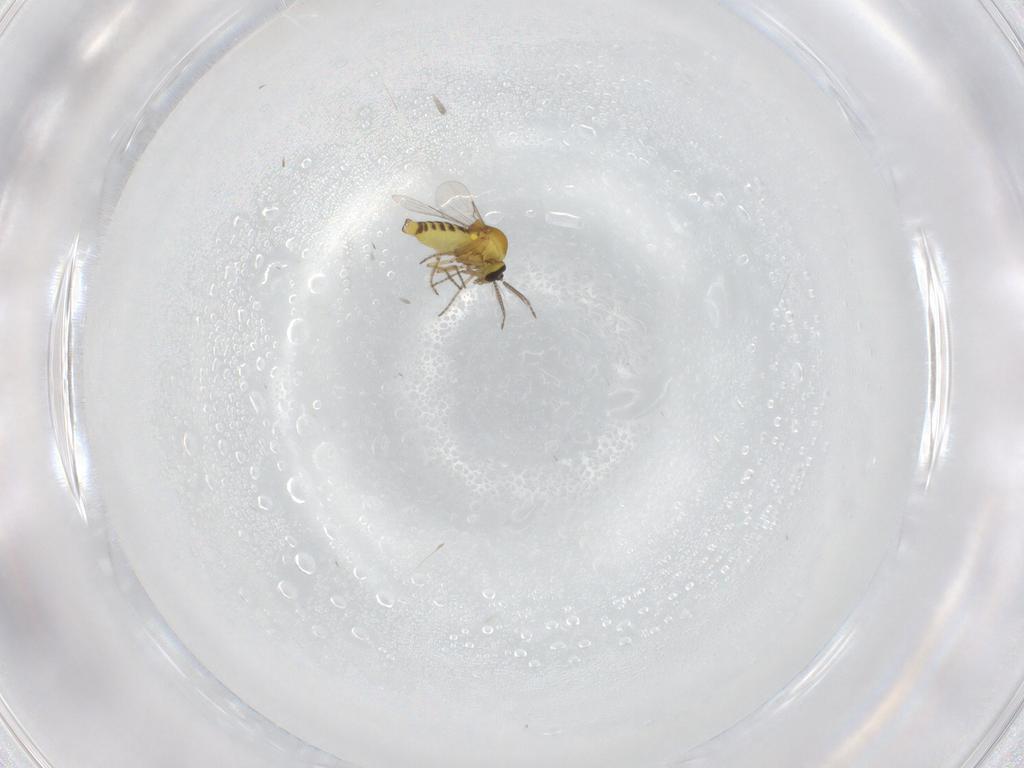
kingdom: Animalia
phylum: Arthropoda
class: Insecta
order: Diptera
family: Ceratopogonidae
